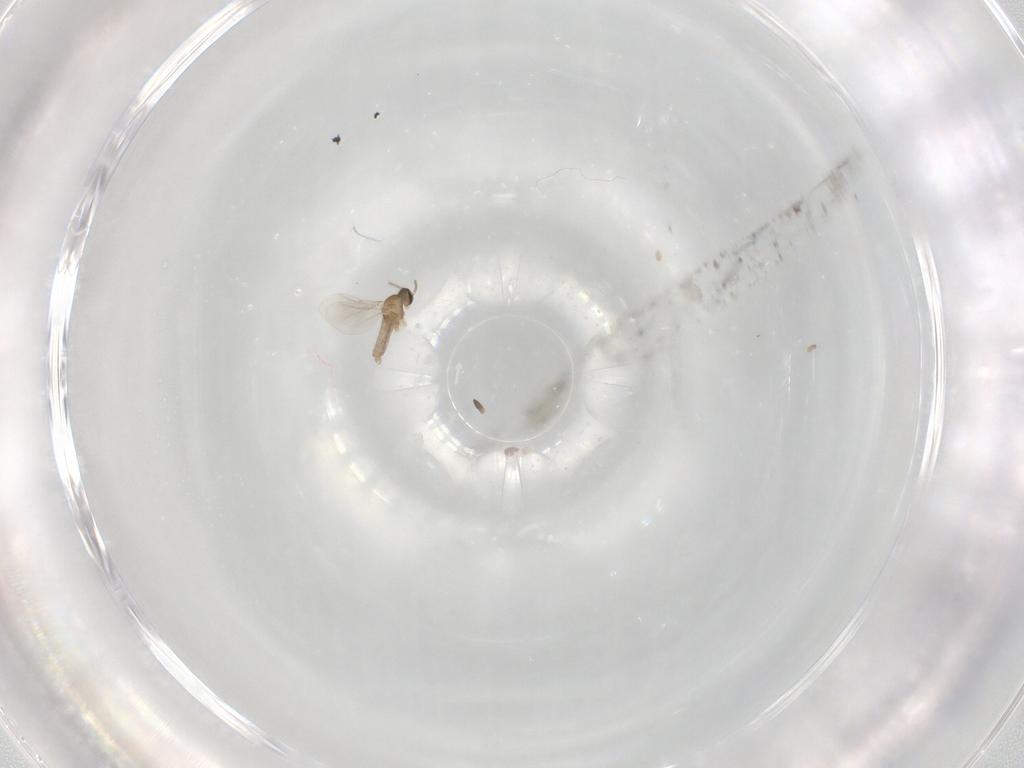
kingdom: Animalia
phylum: Arthropoda
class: Insecta
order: Diptera
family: Cecidomyiidae
